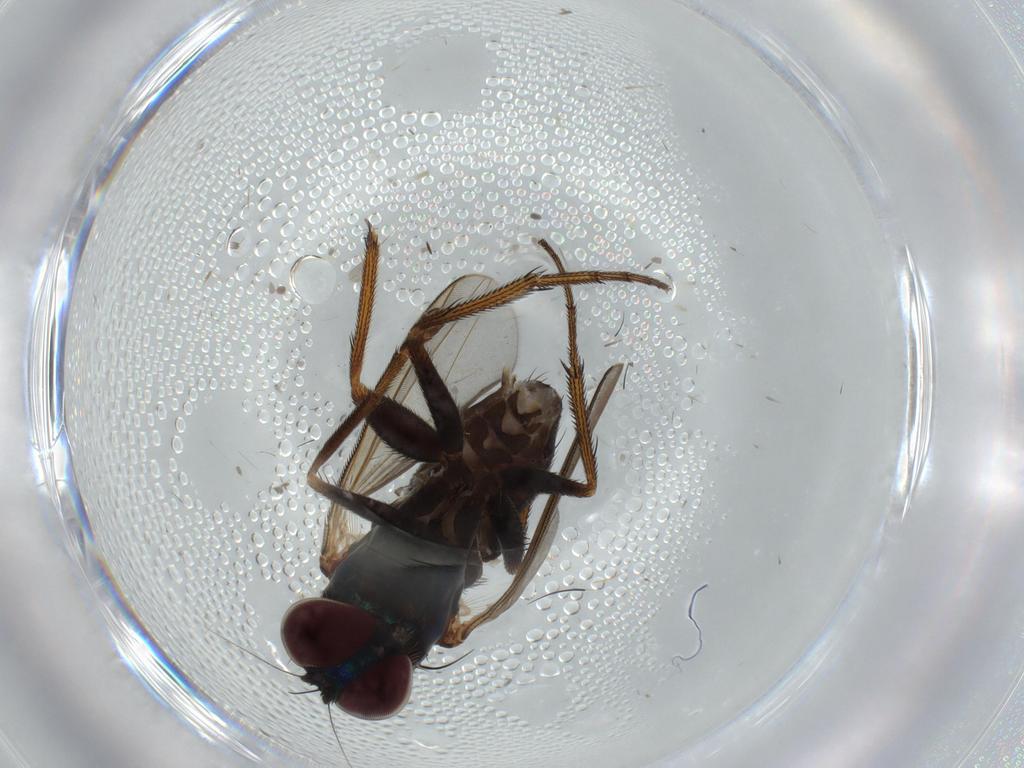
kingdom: Animalia
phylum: Arthropoda
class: Insecta
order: Diptera
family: Dolichopodidae
